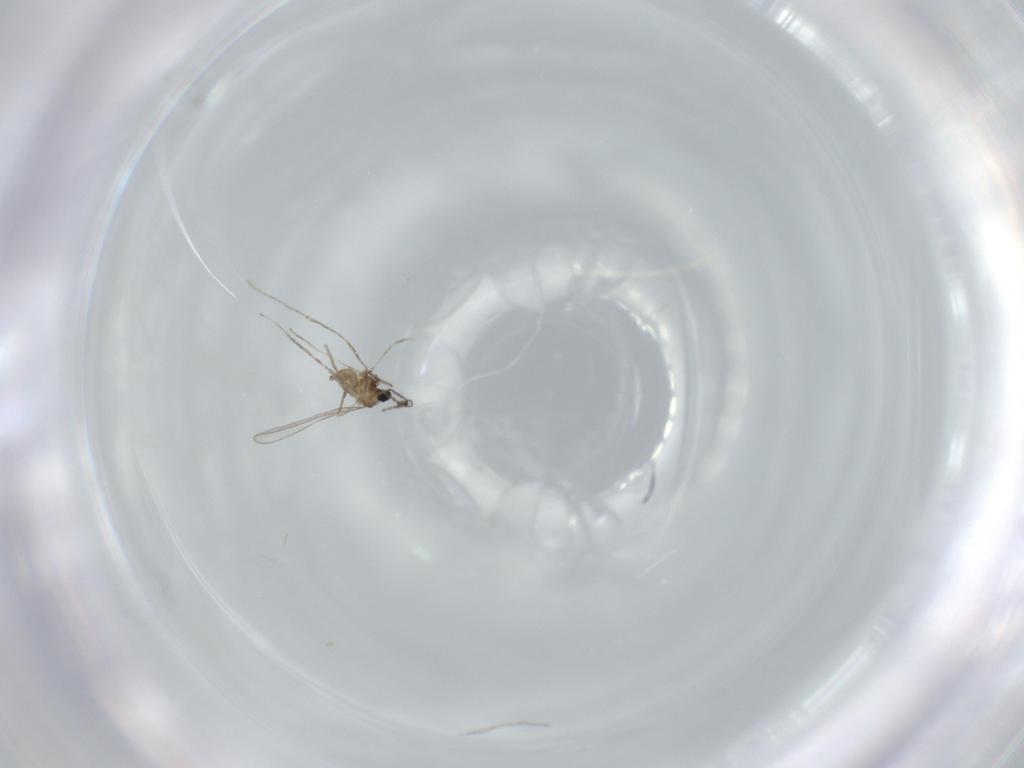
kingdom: Animalia
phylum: Arthropoda
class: Insecta
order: Diptera
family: Cecidomyiidae
